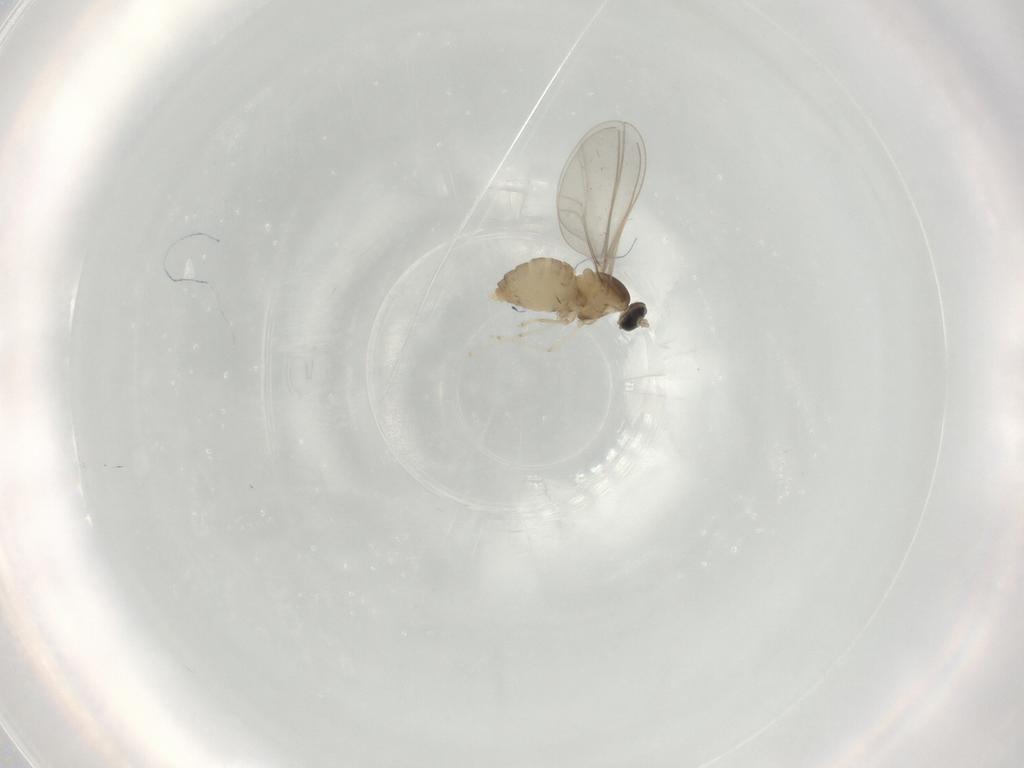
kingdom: Animalia
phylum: Arthropoda
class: Insecta
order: Diptera
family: Cecidomyiidae
